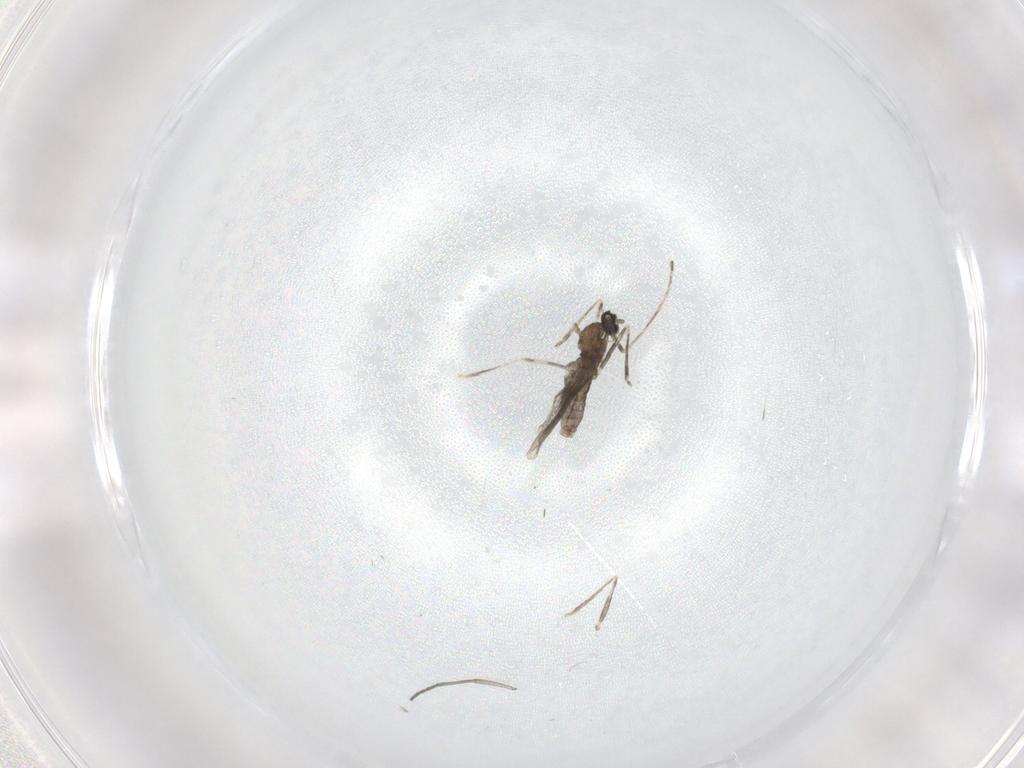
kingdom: Animalia
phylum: Arthropoda
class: Insecta
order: Diptera
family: Cecidomyiidae
